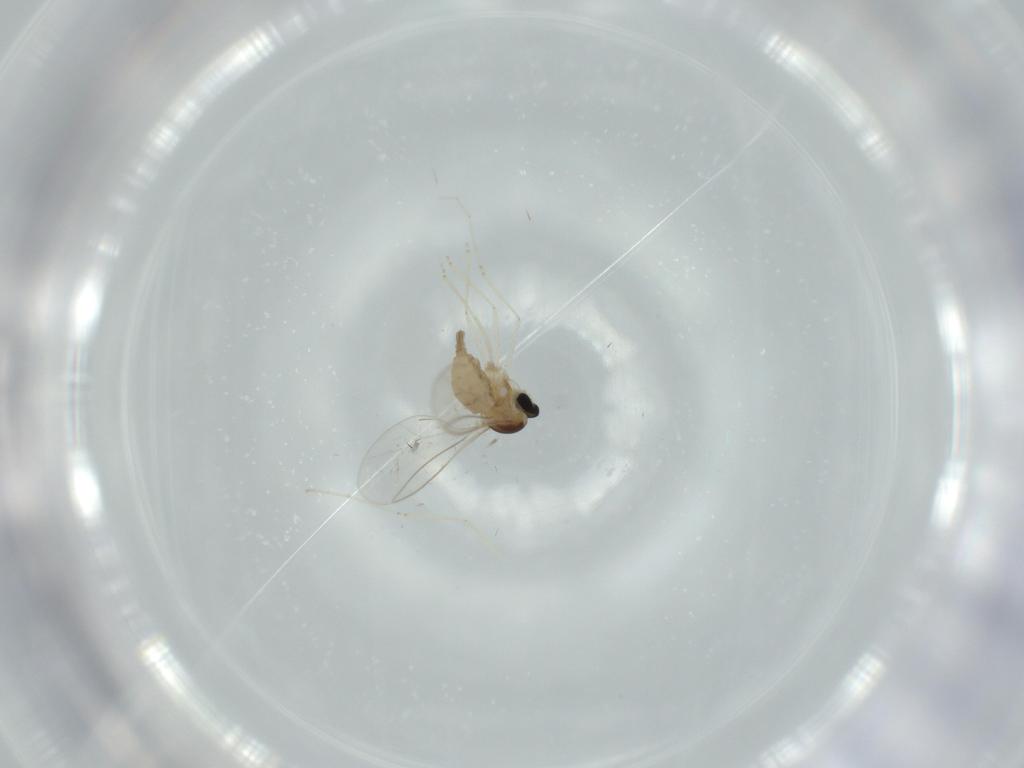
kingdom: Animalia
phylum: Arthropoda
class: Insecta
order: Diptera
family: Cecidomyiidae
